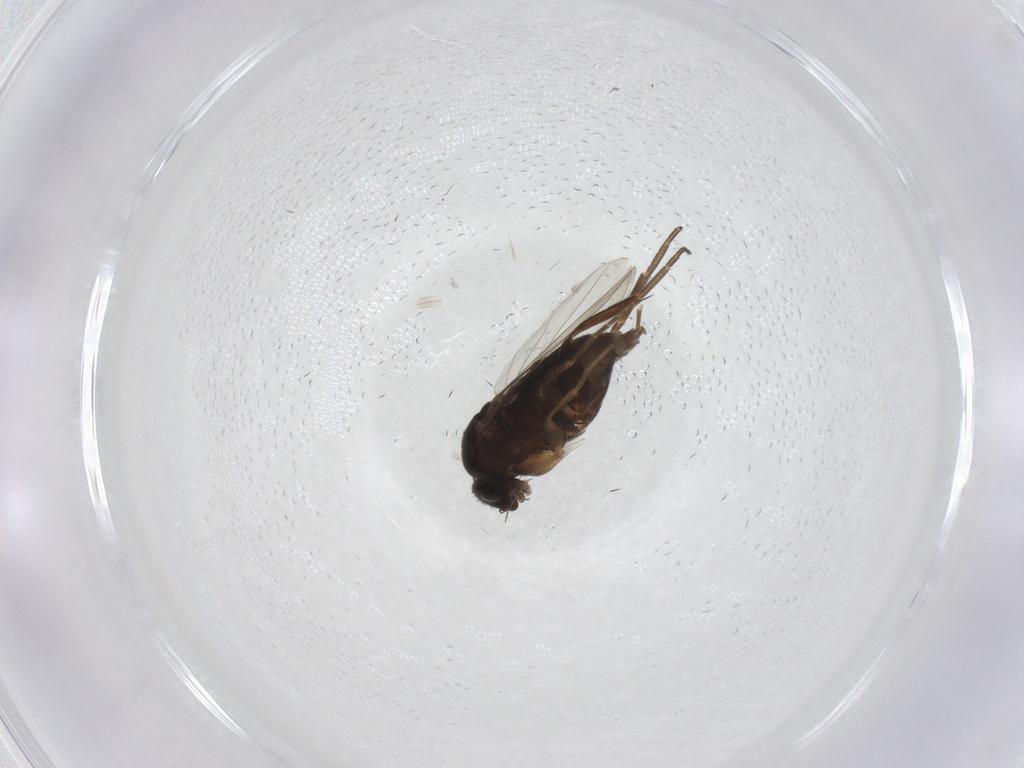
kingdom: Animalia
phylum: Arthropoda
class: Insecta
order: Diptera
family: Phoridae
